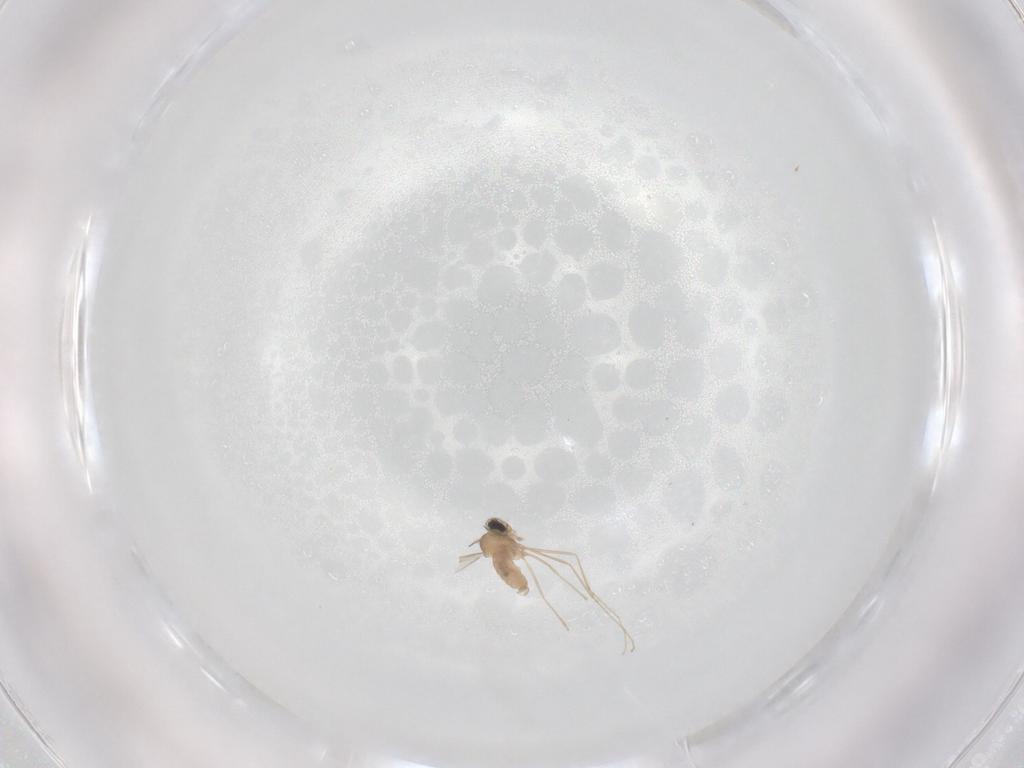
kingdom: Animalia
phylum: Arthropoda
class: Insecta
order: Diptera
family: Cecidomyiidae
